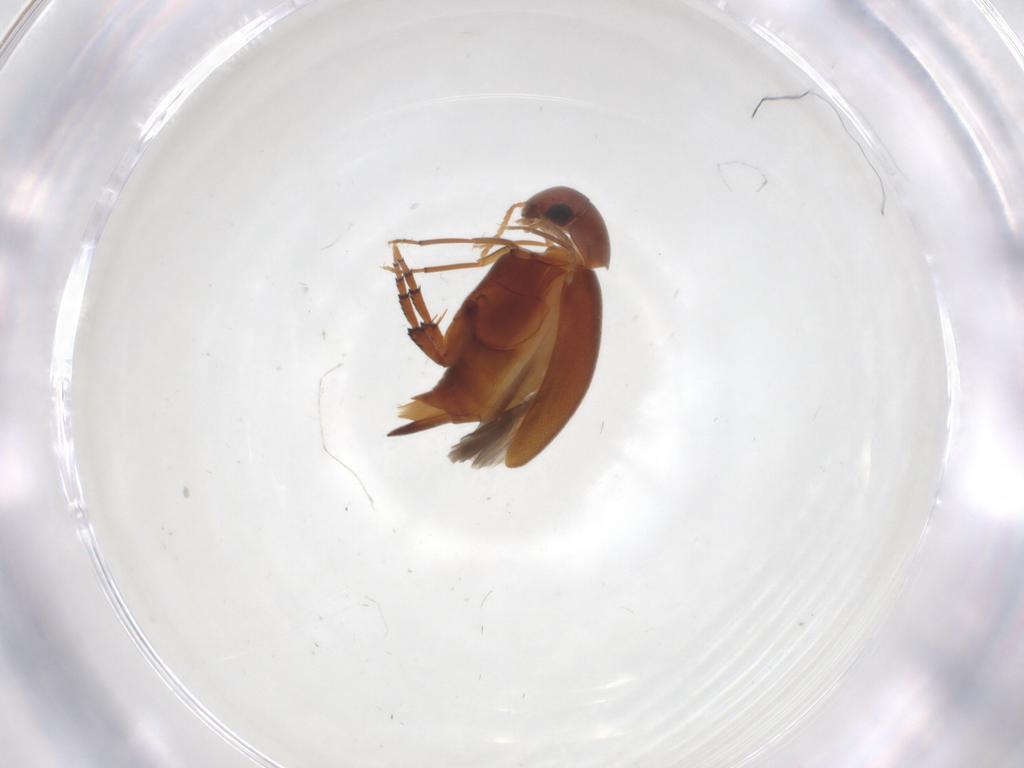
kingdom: Animalia
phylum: Arthropoda
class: Insecta
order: Coleoptera
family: Mordellidae
